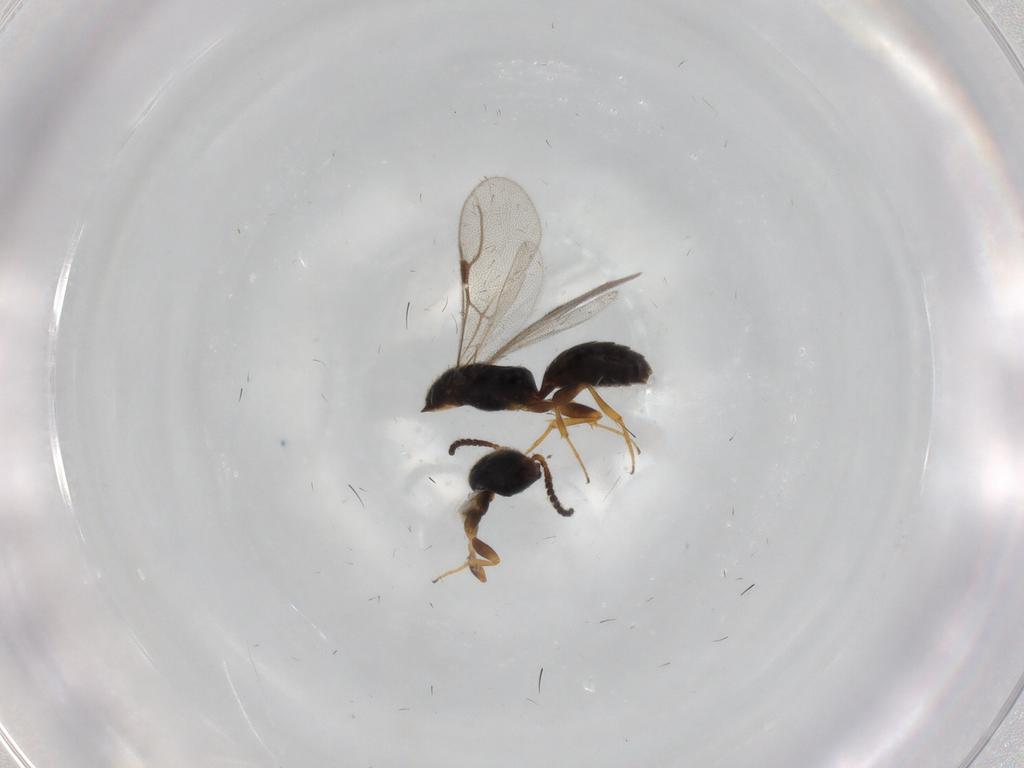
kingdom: Animalia
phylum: Arthropoda
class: Insecta
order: Hymenoptera
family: Bethylidae
